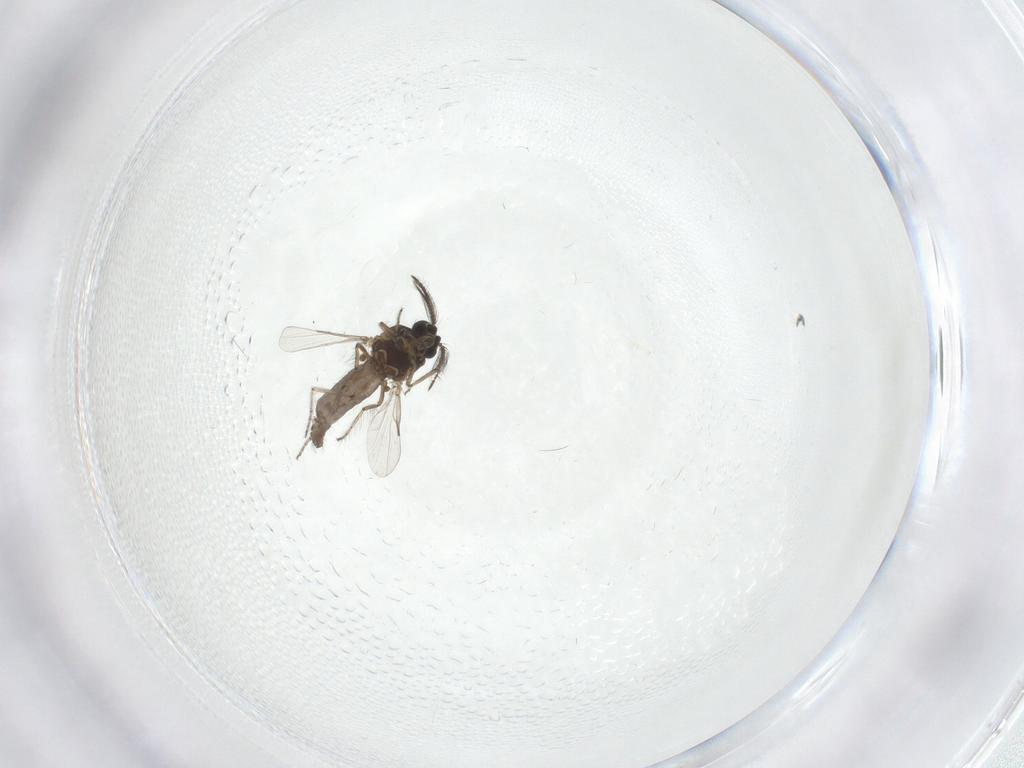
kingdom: Animalia
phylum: Arthropoda
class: Insecta
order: Diptera
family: Ceratopogonidae
